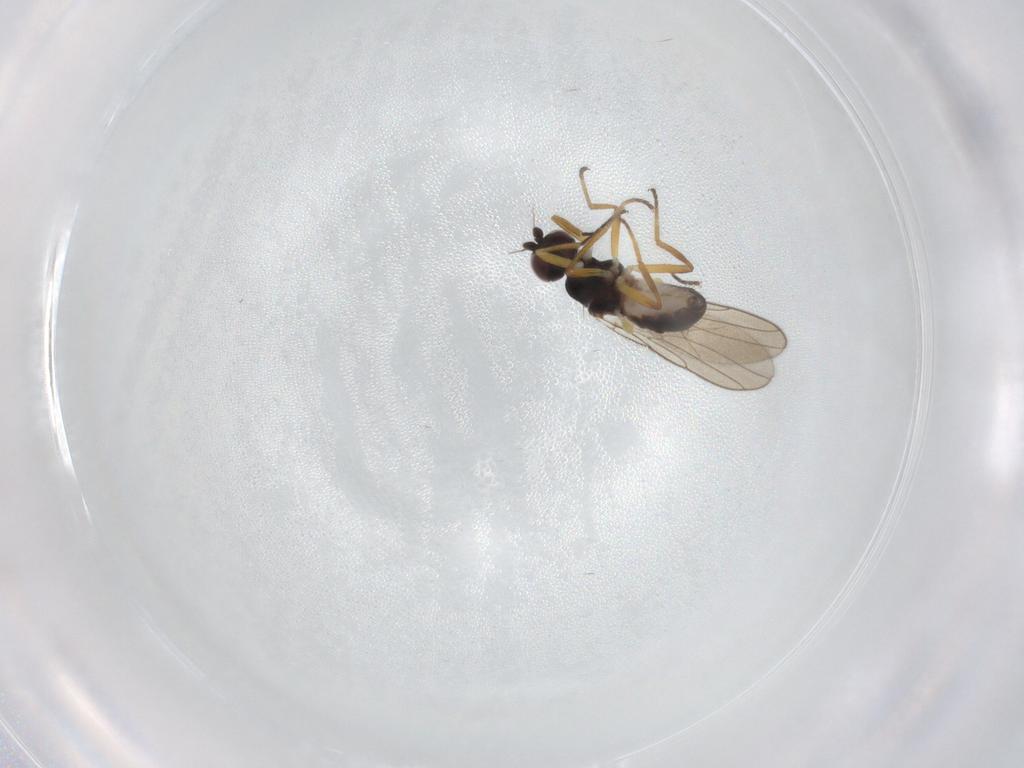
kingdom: Animalia
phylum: Arthropoda
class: Insecta
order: Diptera
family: Chloropidae
